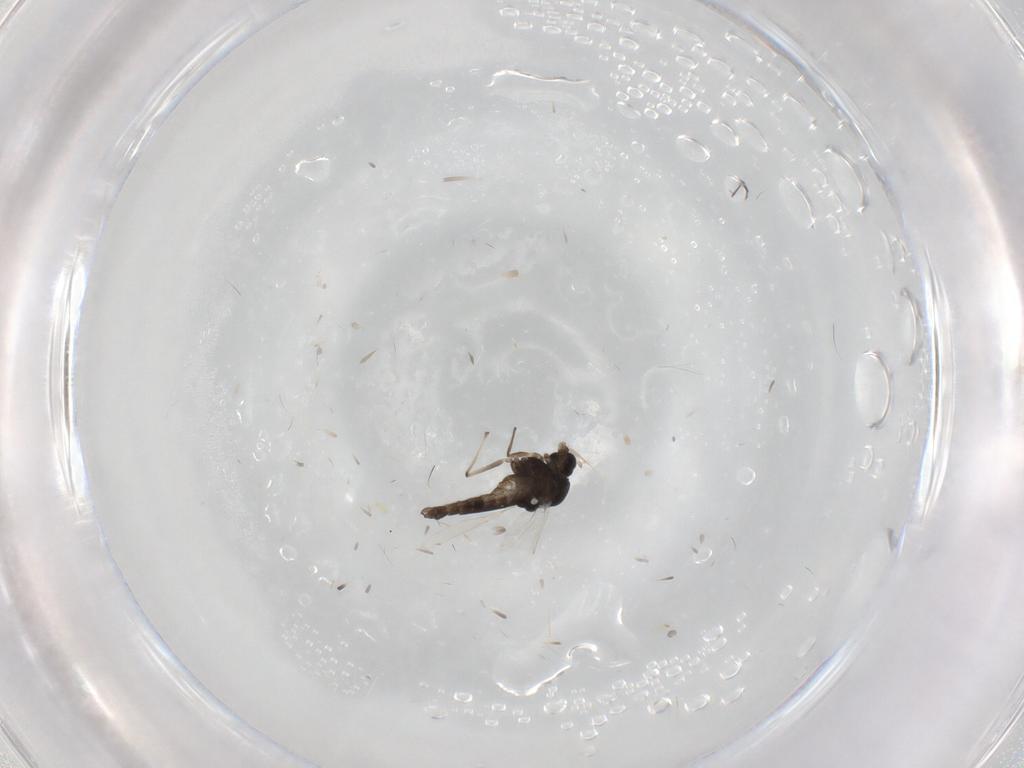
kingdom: Animalia
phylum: Arthropoda
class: Insecta
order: Diptera
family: Chironomidae
